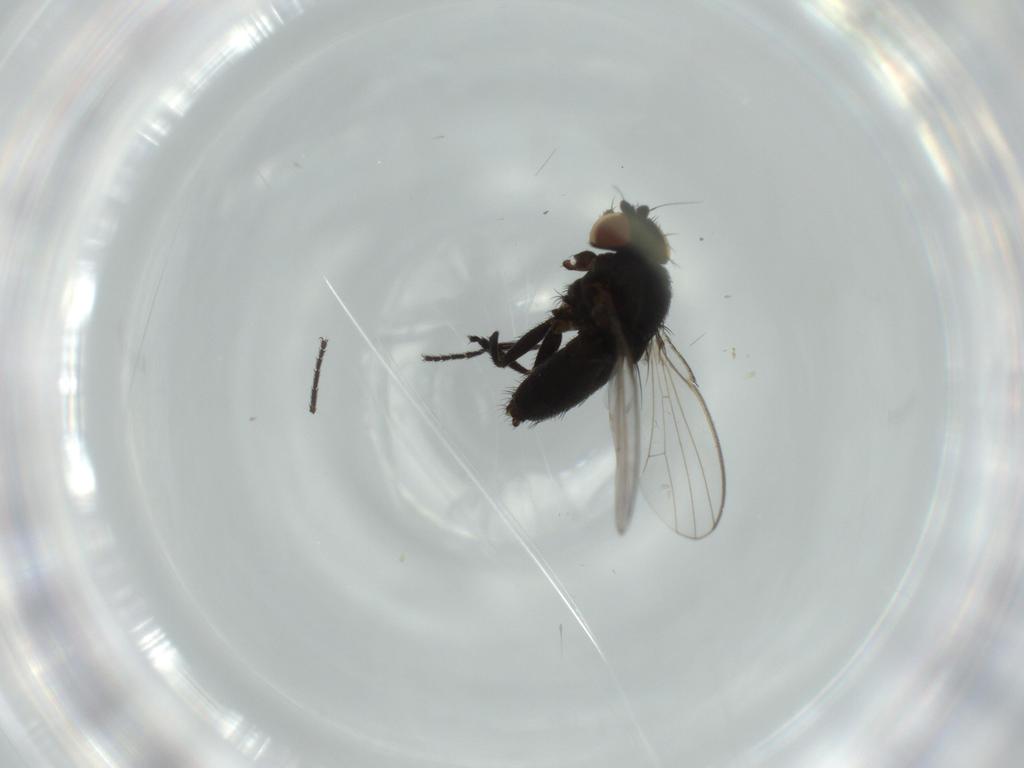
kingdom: Animalia
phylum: Arthropoda
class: Insecta
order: Diptera
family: Milichiidae
